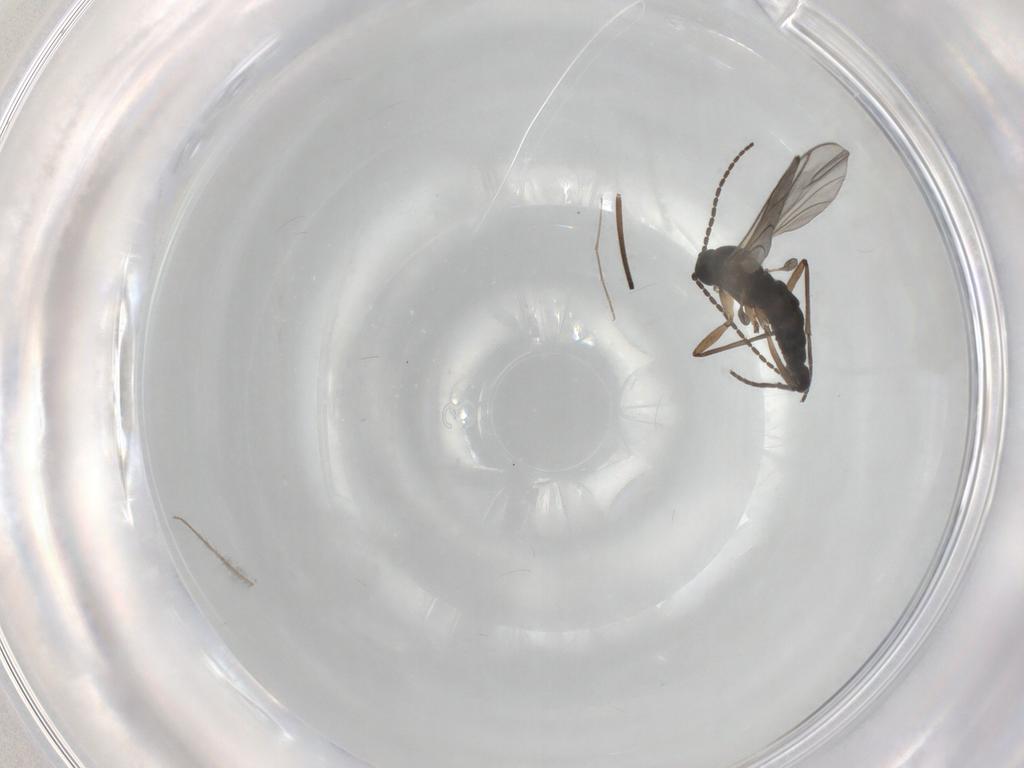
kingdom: Animalia
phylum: Arthropoda
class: Insecta
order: Diptera
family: Sciaridae
